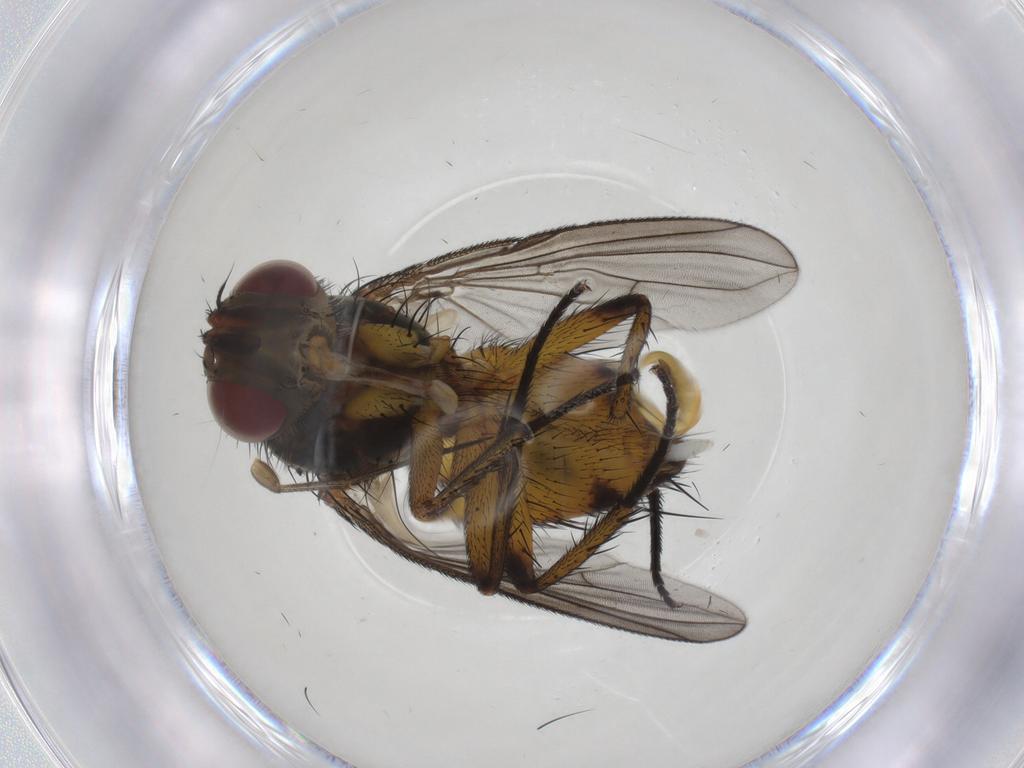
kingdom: Animalia
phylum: Arthropoda
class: Insecta
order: Diptera
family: Tachinidae
